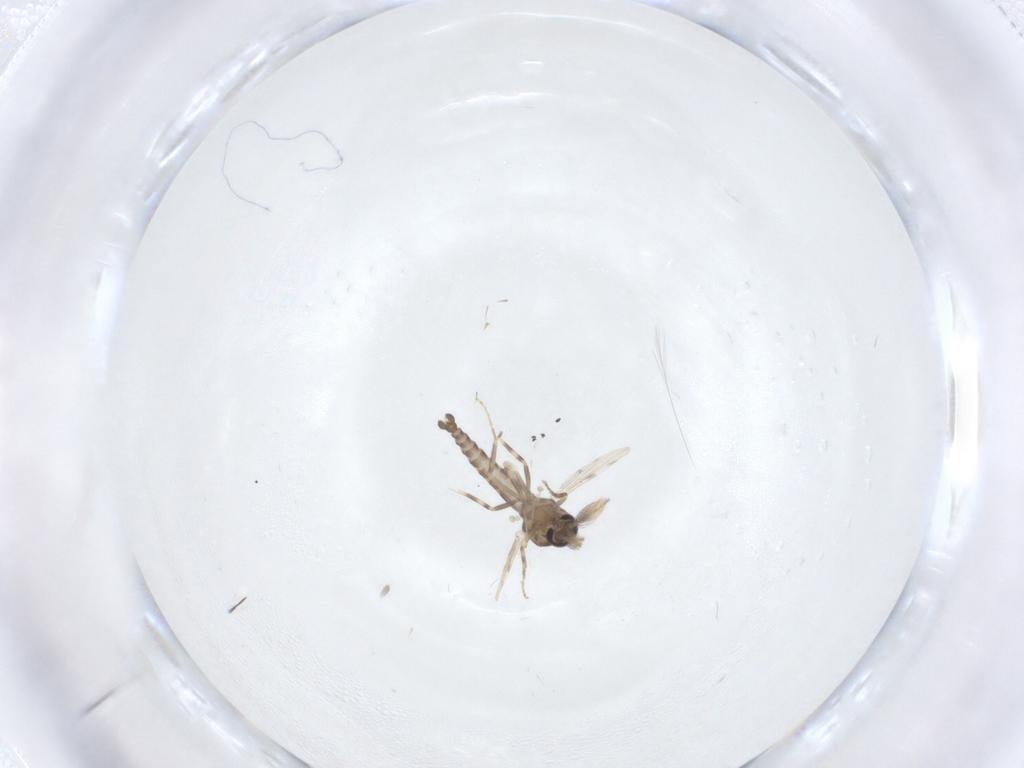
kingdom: Animalia
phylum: Arthropoda
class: Insecta
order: Diptera
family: Ceratopogonidae
